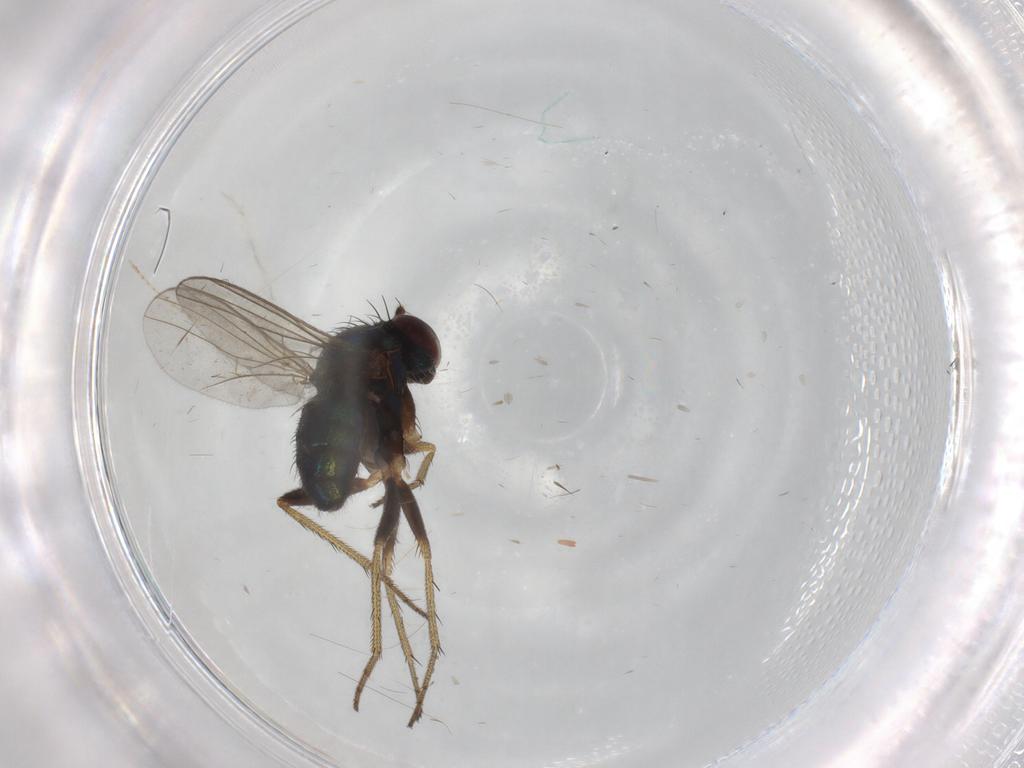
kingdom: Animalia
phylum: Arthropoda
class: Insecta
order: Diptera
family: Dolichopodidae
